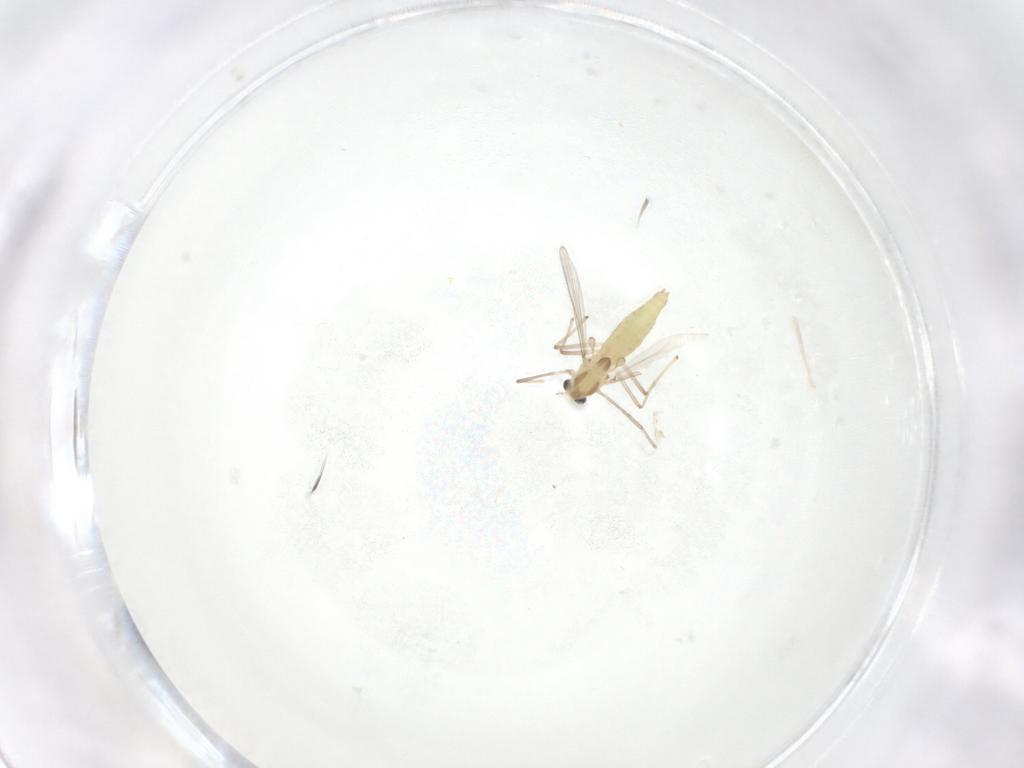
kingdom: Animalia
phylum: Arthropoda
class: Insecta
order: Diptera
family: Chironomidae
